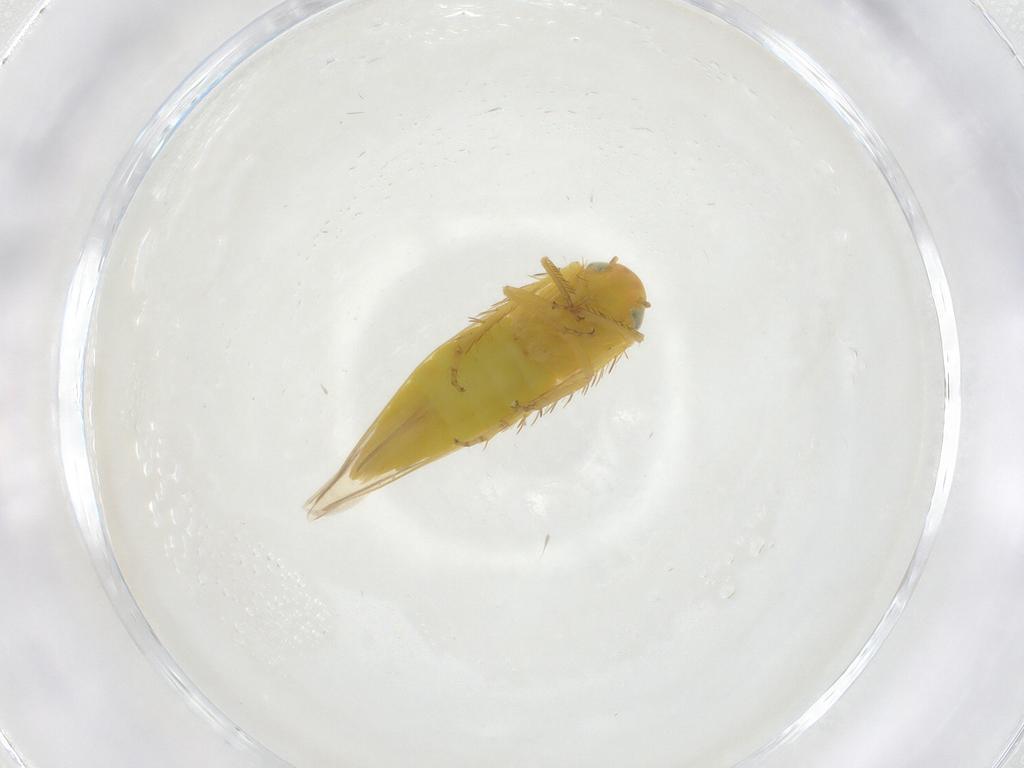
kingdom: Animalia
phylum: Arthropoda
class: Insecta
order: Hemiptera
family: Cicadellidae
